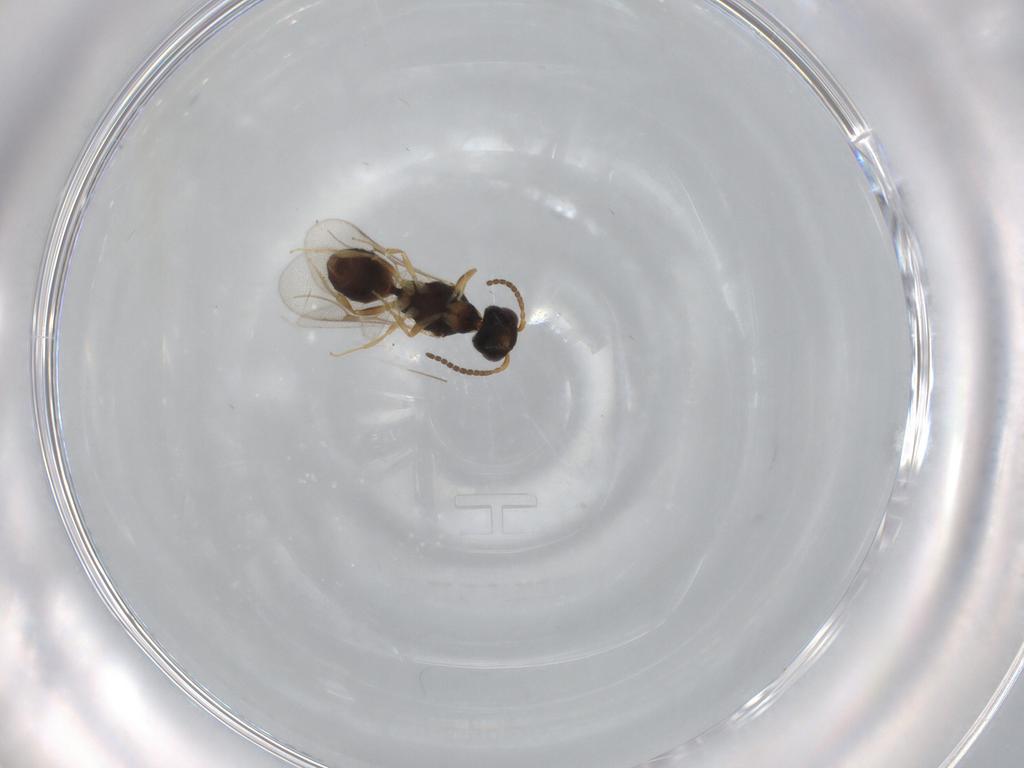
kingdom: Animalia
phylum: Arthropoda
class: Insecta
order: Hymenoptera
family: Bethylidae
